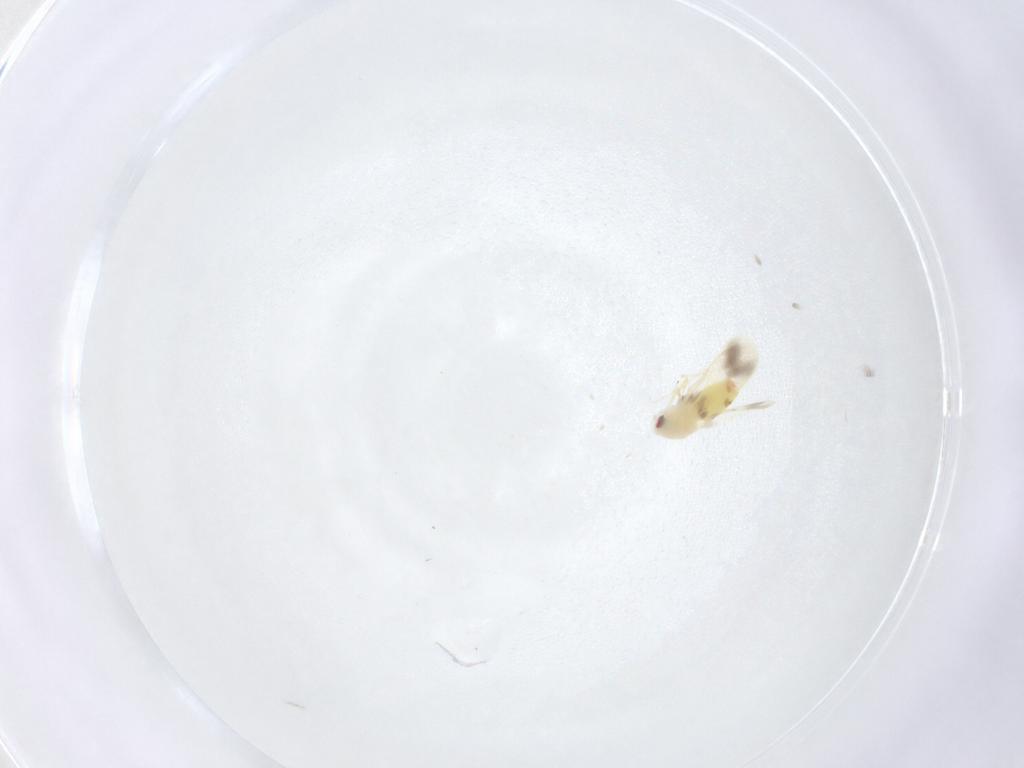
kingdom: Animalia
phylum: Arthropoda
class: Insecta
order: Hemiptera
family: Aleyrodidae
